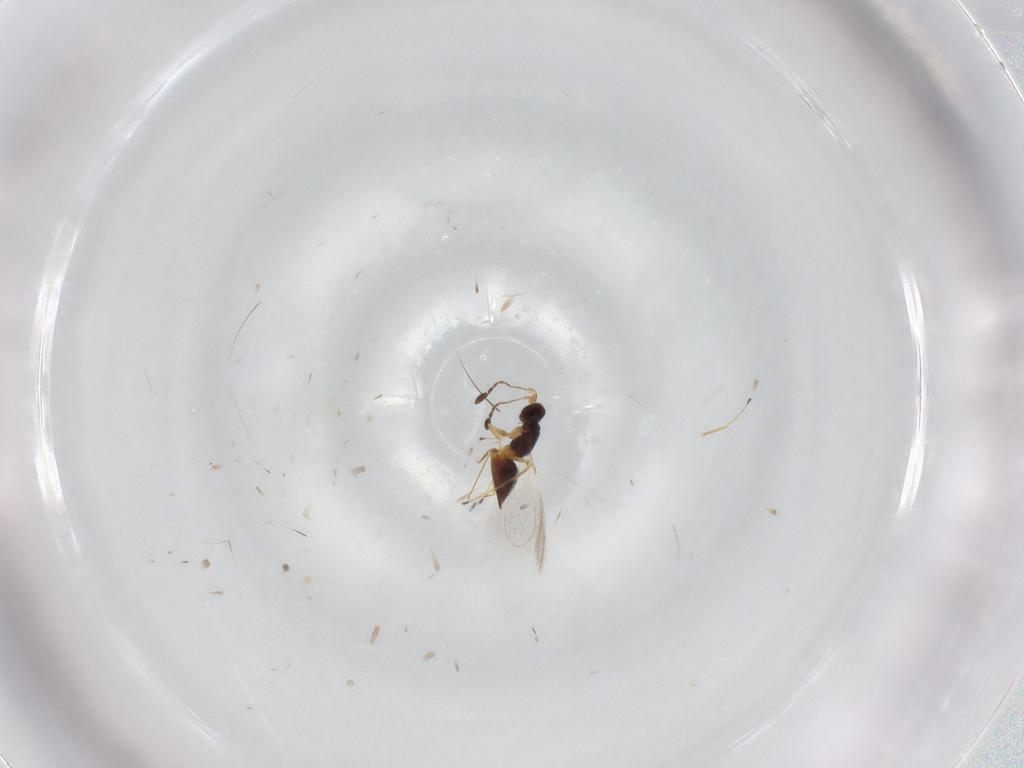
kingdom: Animalia
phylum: Arthropoda
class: Insecta
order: Hymenoptera
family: Mymaridae
